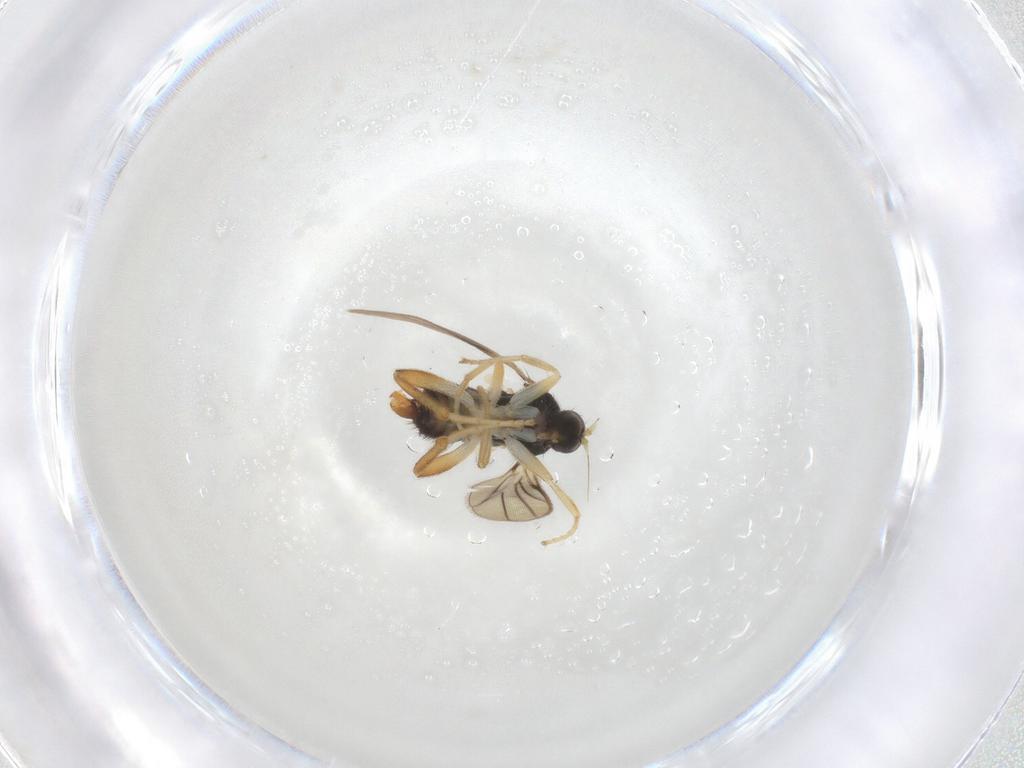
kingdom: Animalia
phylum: Arthropoda
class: Insecta
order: Diptera
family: Hybotidae
